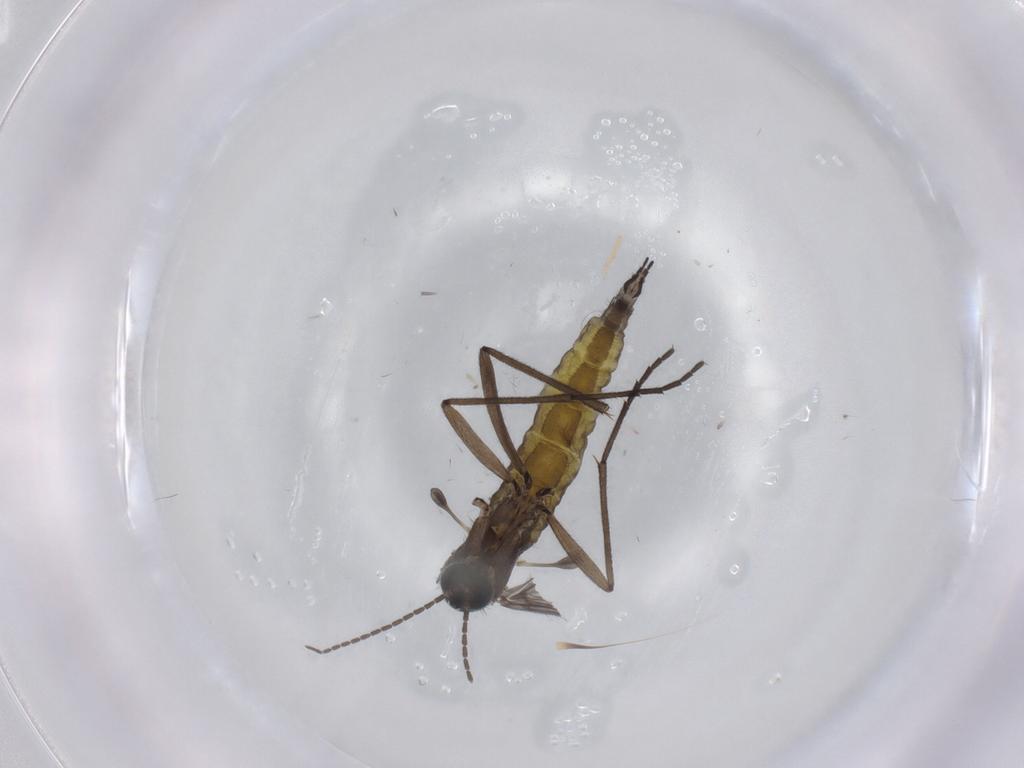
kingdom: Animalia
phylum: Arthropoda
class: Insecta
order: Diptera
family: Sciaridae
